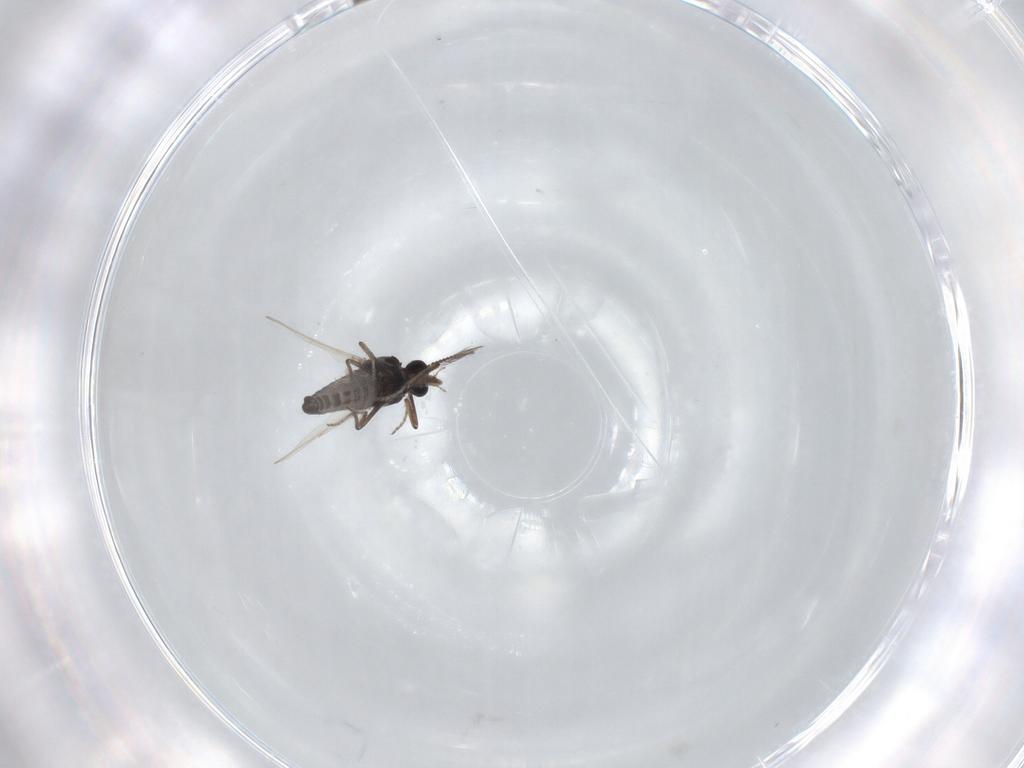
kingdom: Animalia
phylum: Arthropoda
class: Insecta
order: Diptera
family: Ceratopogonidae
